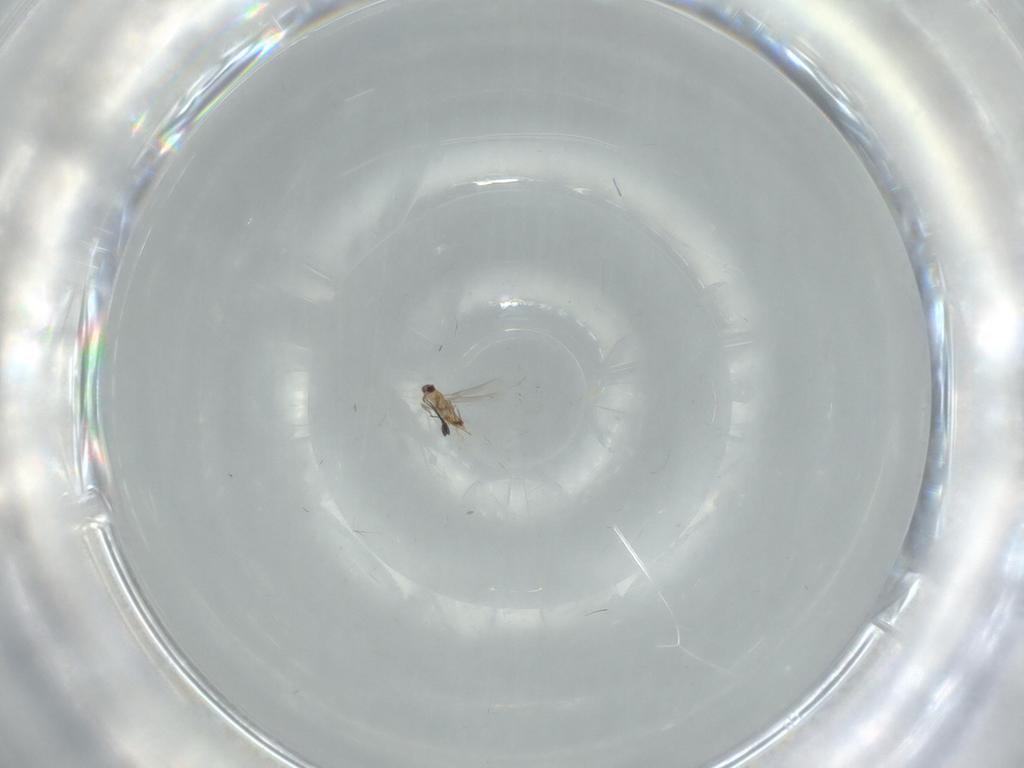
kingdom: Animalia
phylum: Arthropoda
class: Insecta
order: Hymenoptera
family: Mymaridae
